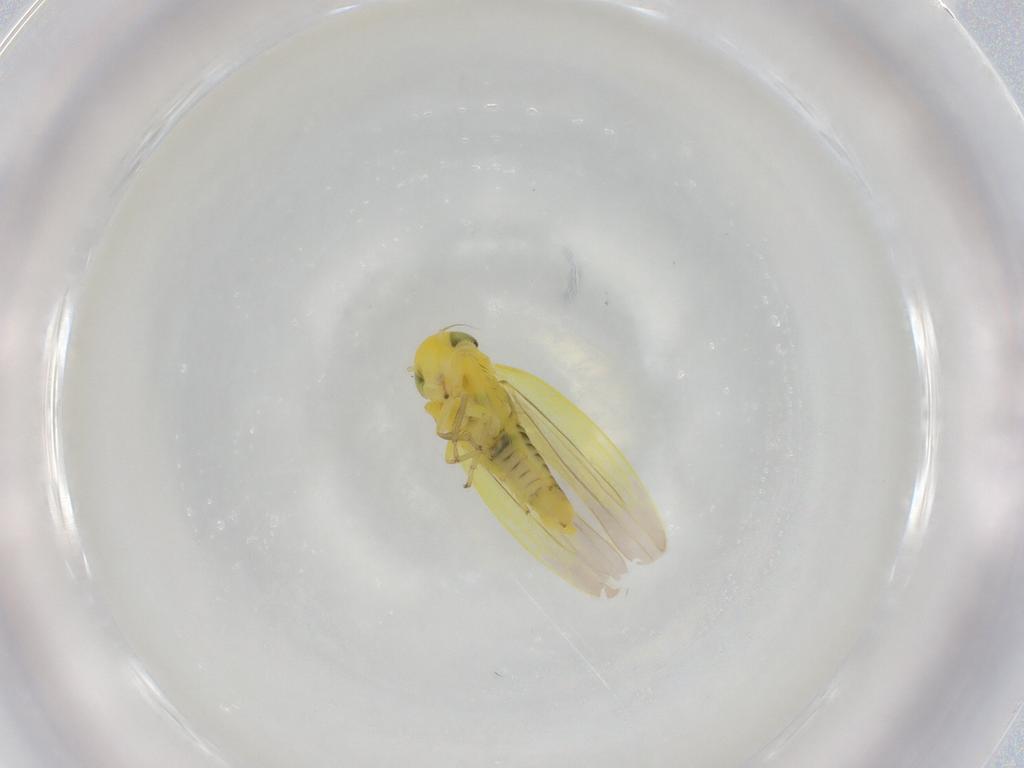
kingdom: Animalia
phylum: Arthropoda
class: Insecta
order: Hemiptera
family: Cicadellidae
